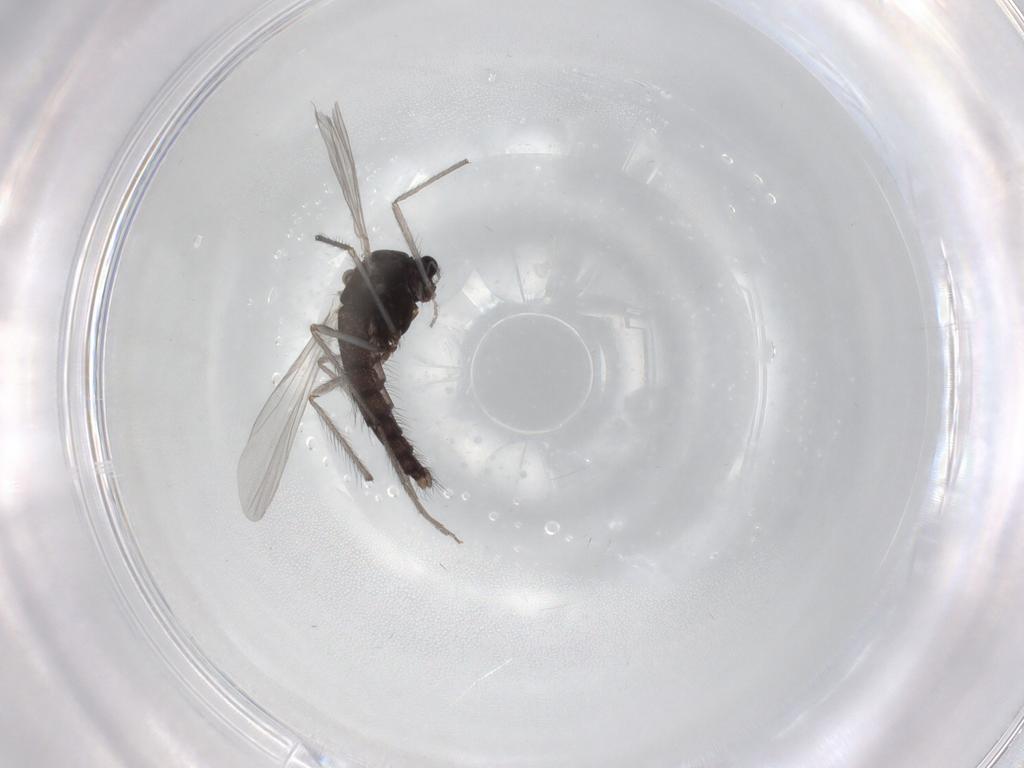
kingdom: Animalia
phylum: Arthropoda
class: Insecta
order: Diptera
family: Chironomidae
